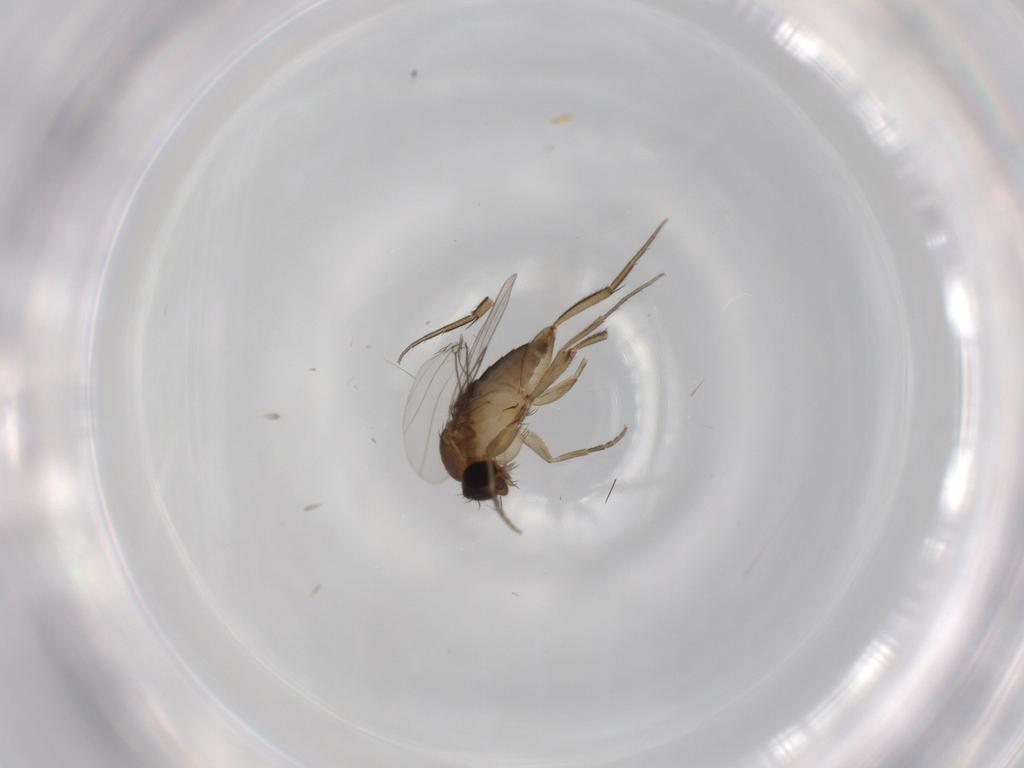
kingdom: Animalia
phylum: Arthropoda
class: Insecta
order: Diptera
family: Phoridae
